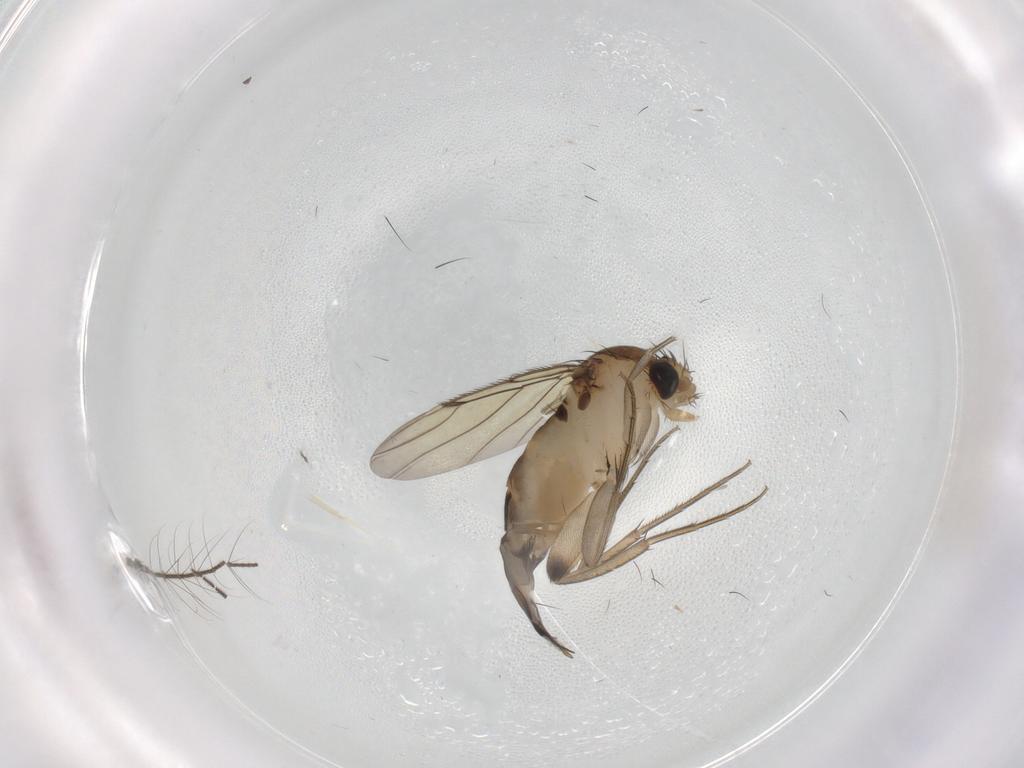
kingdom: Animalia
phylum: Arthropoda
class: Insecta
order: Diptera
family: Phoridae
